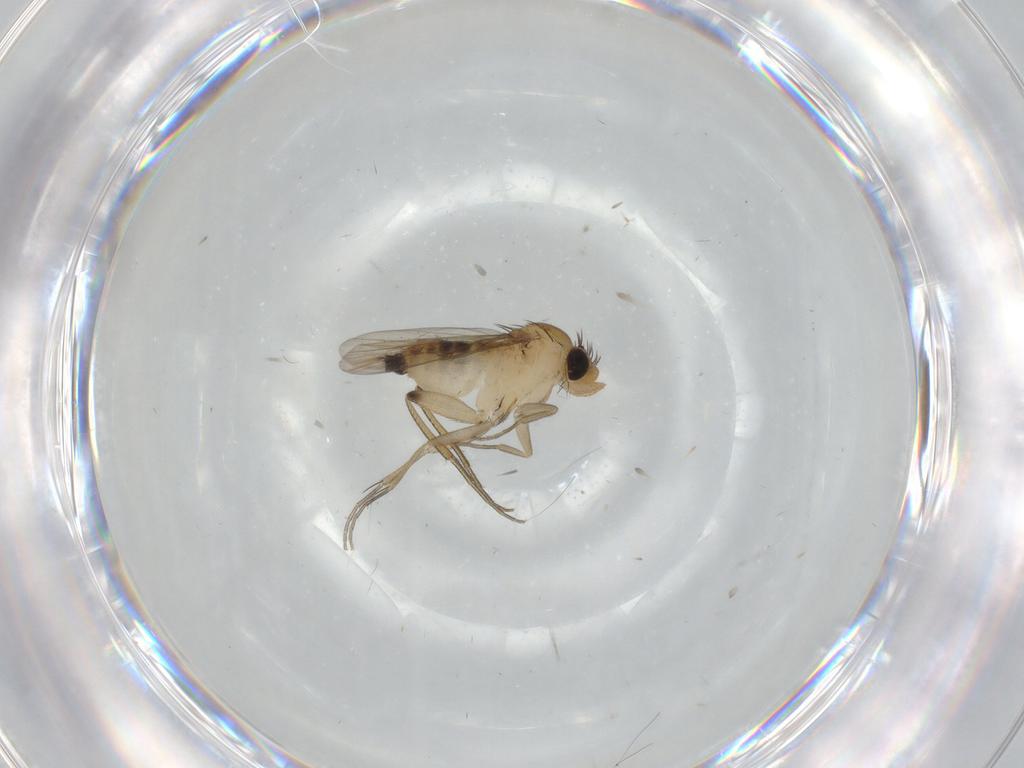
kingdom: Animalia
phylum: Arthropoda
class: Insecta
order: Diptera
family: Phoridae
